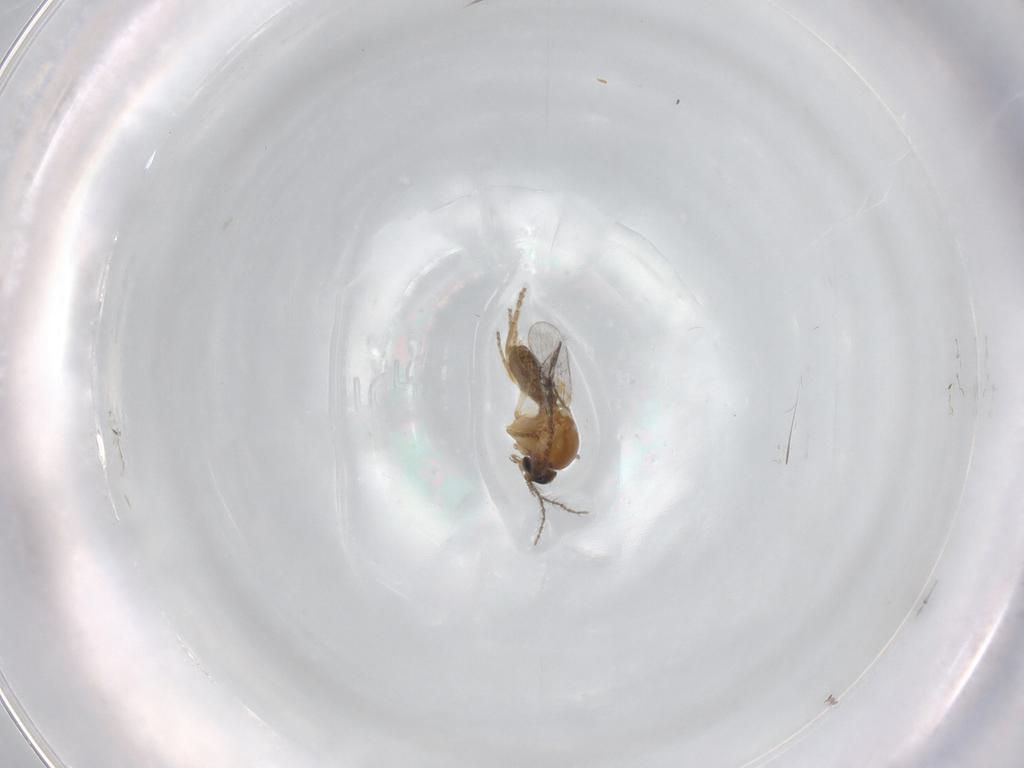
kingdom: Animalia
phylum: Arthropoda
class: Insecta
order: Diptera
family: Ceratopogonidae
